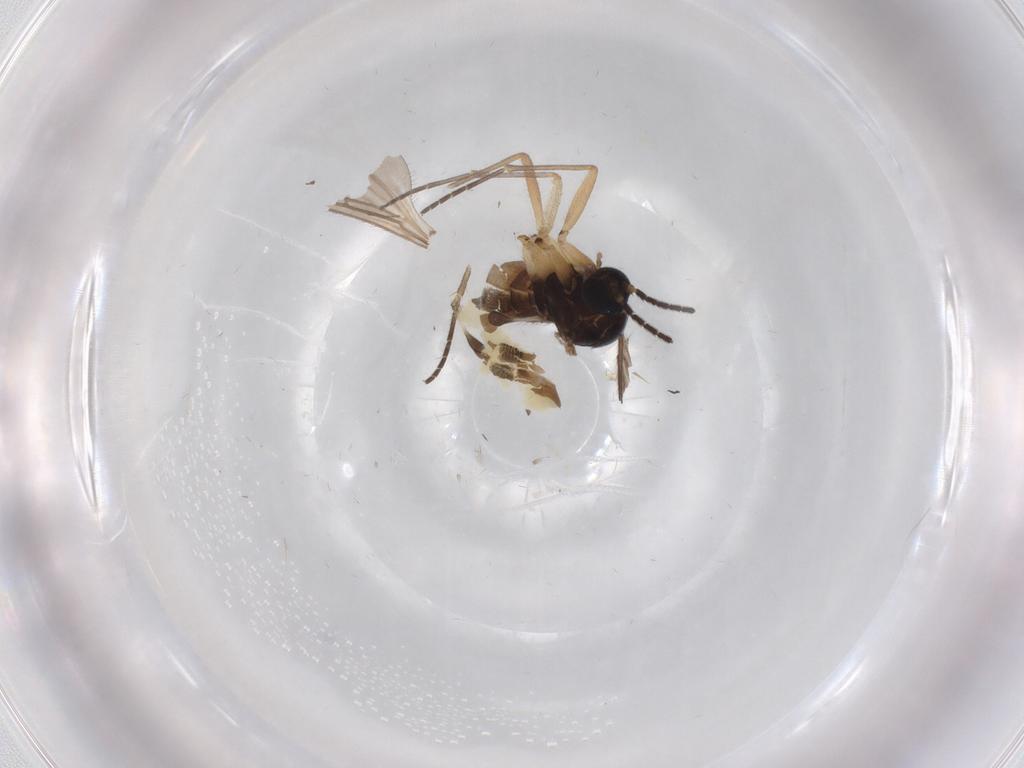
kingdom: Animalia
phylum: Arthropoda
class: Insecta
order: Diptera
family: Sciaridae
